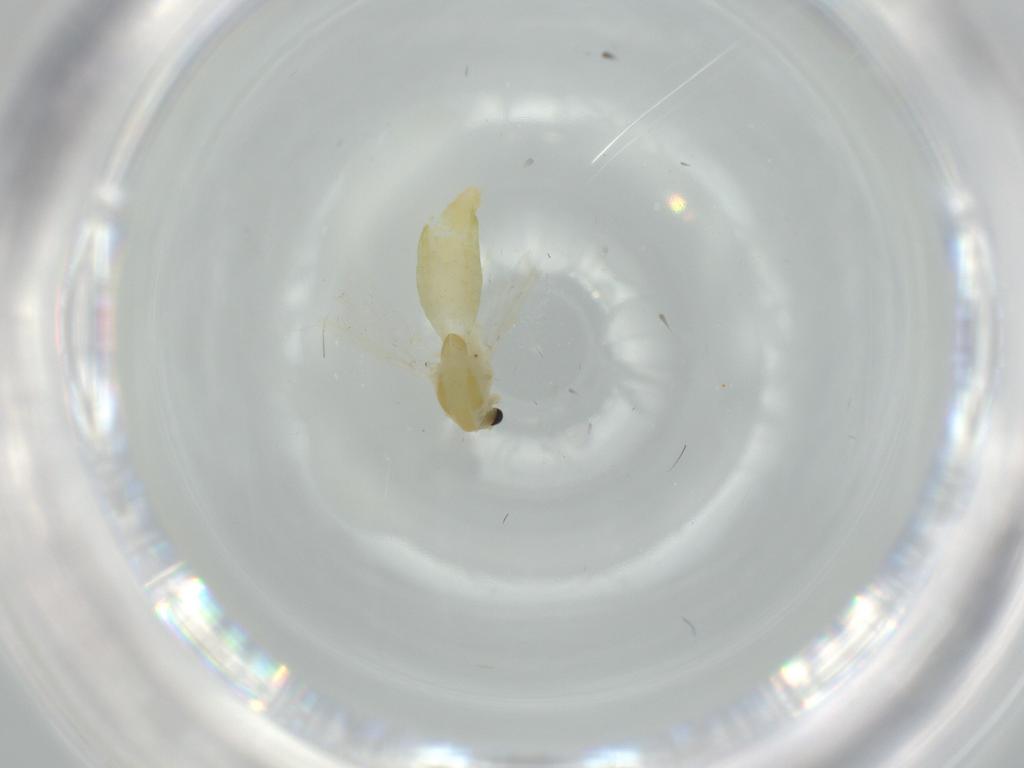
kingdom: Animalia
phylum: Arthropoda
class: Insecta
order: Diptera
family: Chironomidae
